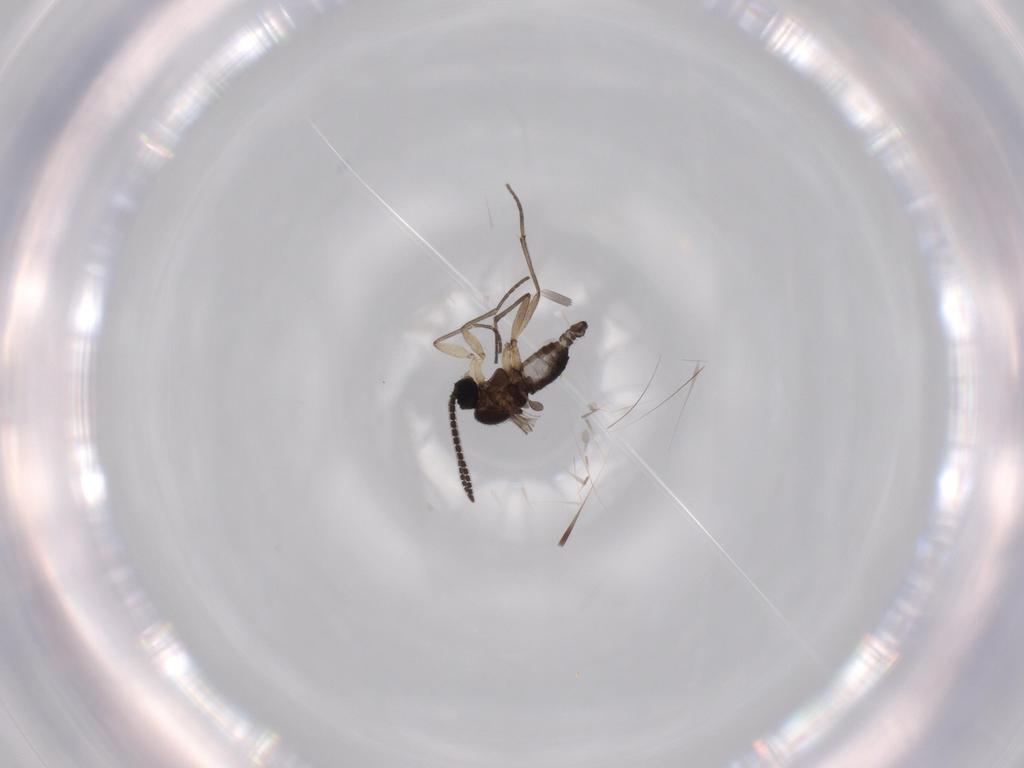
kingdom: Animalia
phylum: Arthropoda
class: Insecta
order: Diptera
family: Sciaridae
